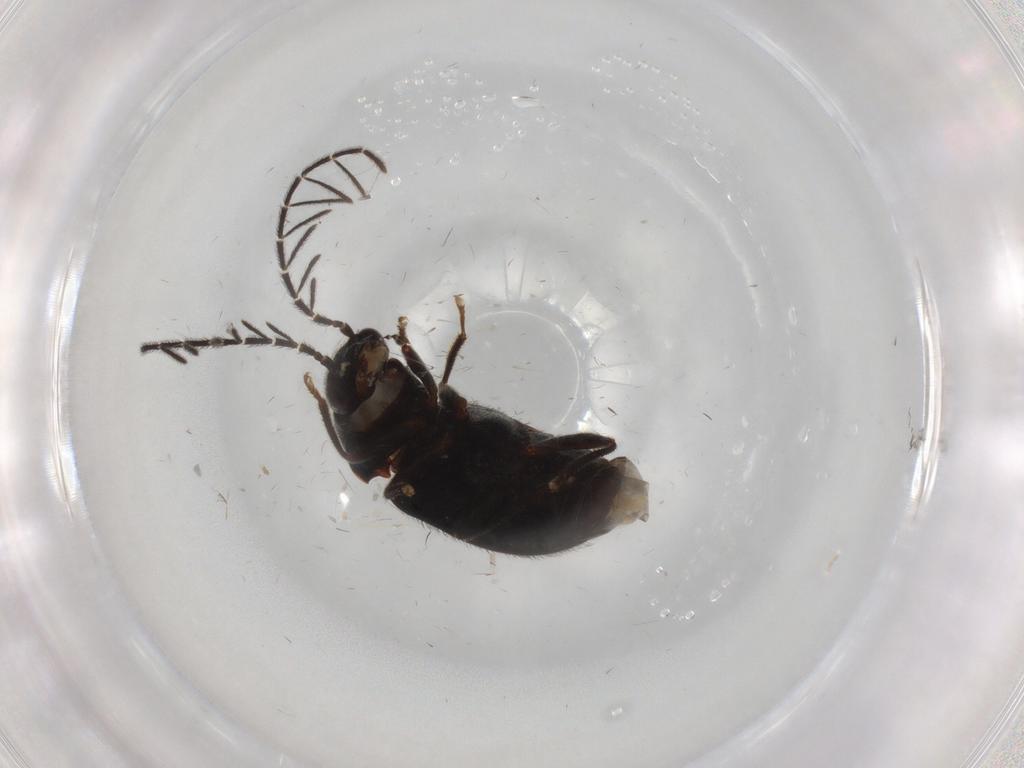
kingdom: Animalia
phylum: Arthropoda
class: Insecta
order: Coleoptera
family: Ptilodactylidae
